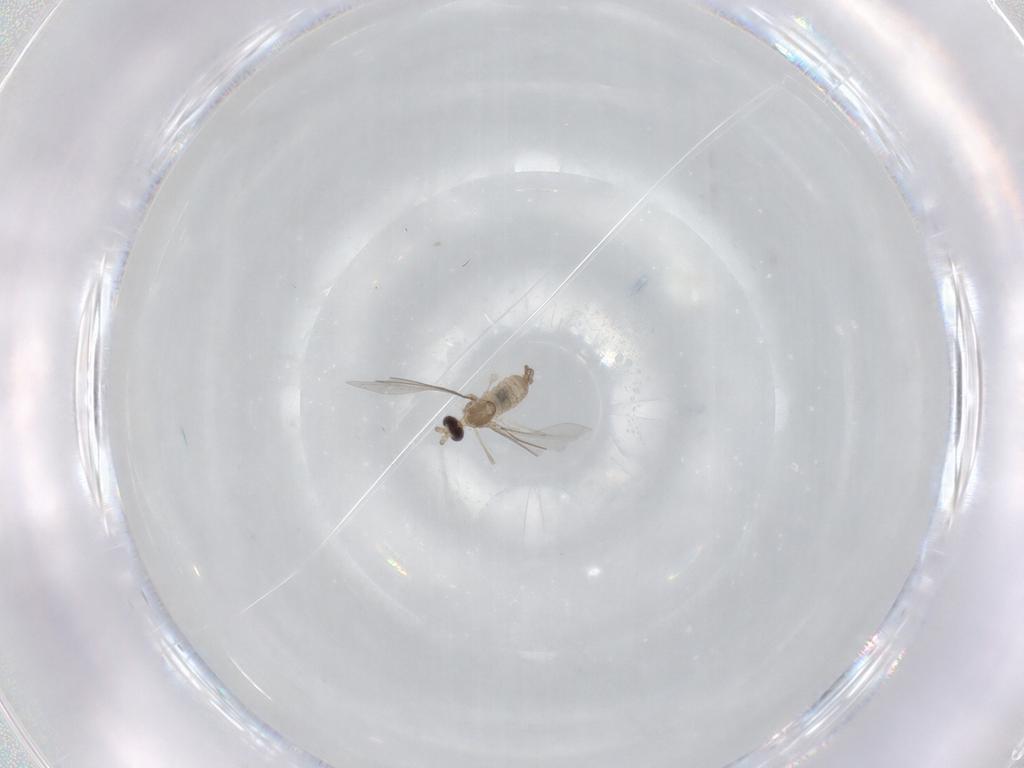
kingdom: Animalia
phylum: Arthropoda
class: Insecta
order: Diptera
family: Cecidomyiidae
